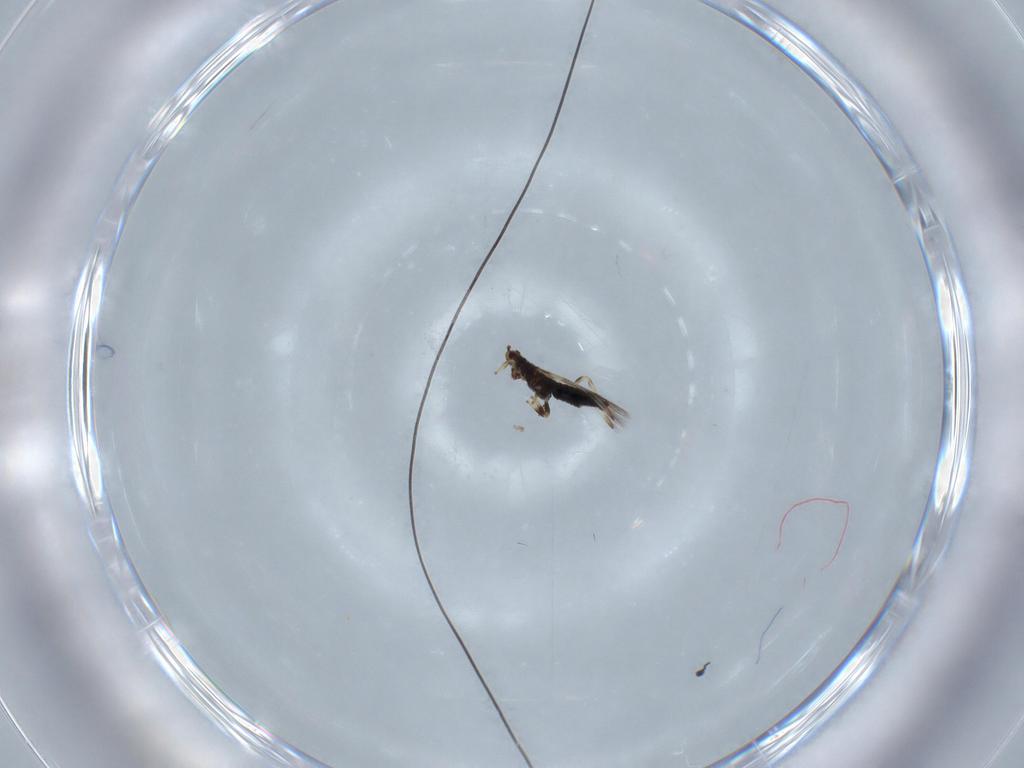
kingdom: Animalia
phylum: Arthropoda
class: Insecta
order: Thysanoptera
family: Thripidae
